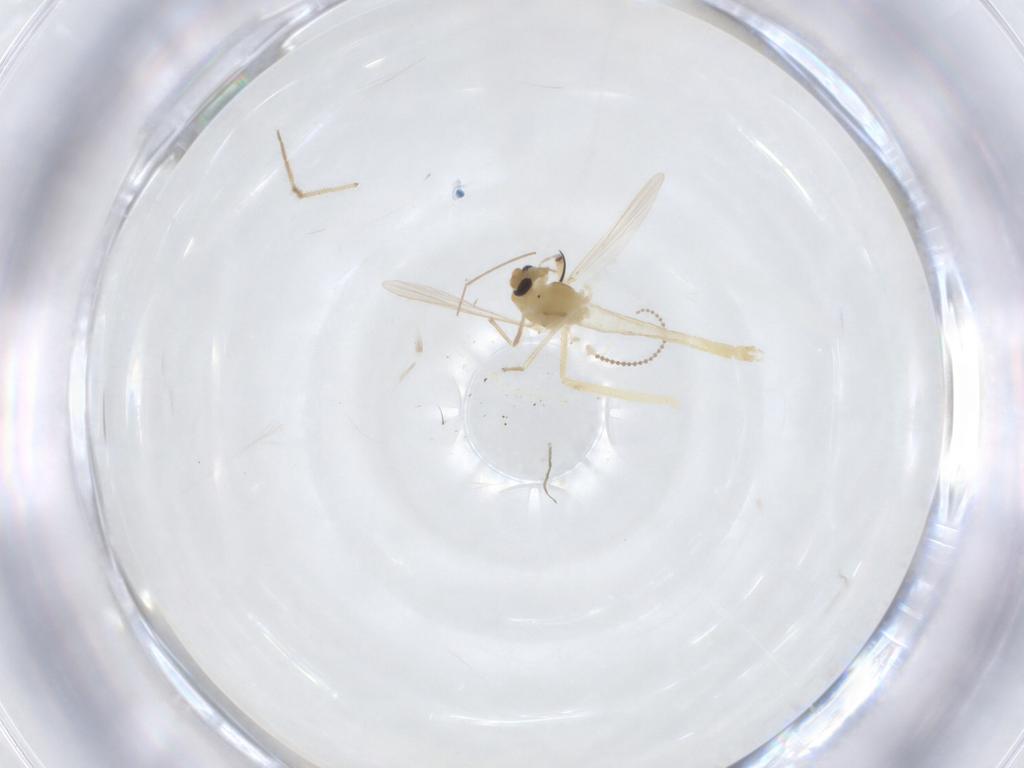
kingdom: Animalia
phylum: Arthropoda
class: Insecta
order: Diptera
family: Chironomidae
